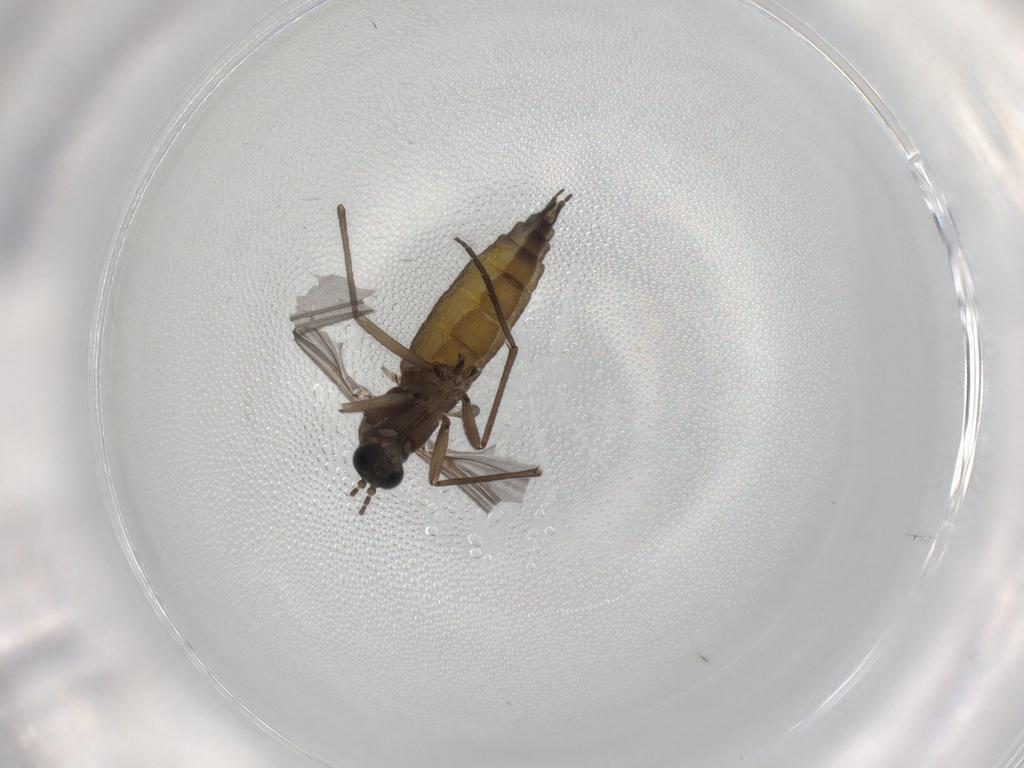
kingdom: Animalia
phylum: Arthropoda
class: Insecta
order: Diptera
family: Sciaridae
